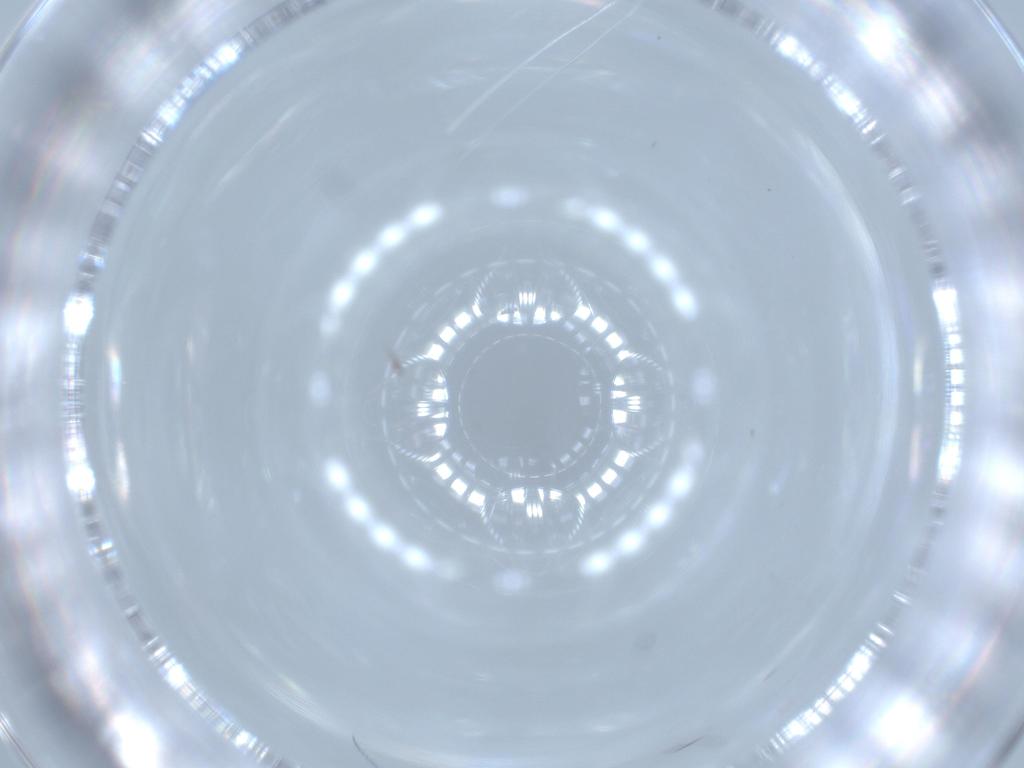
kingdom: Animalia
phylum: Arthropoda
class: Insecta
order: Diptera
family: Cecidomyiidae
